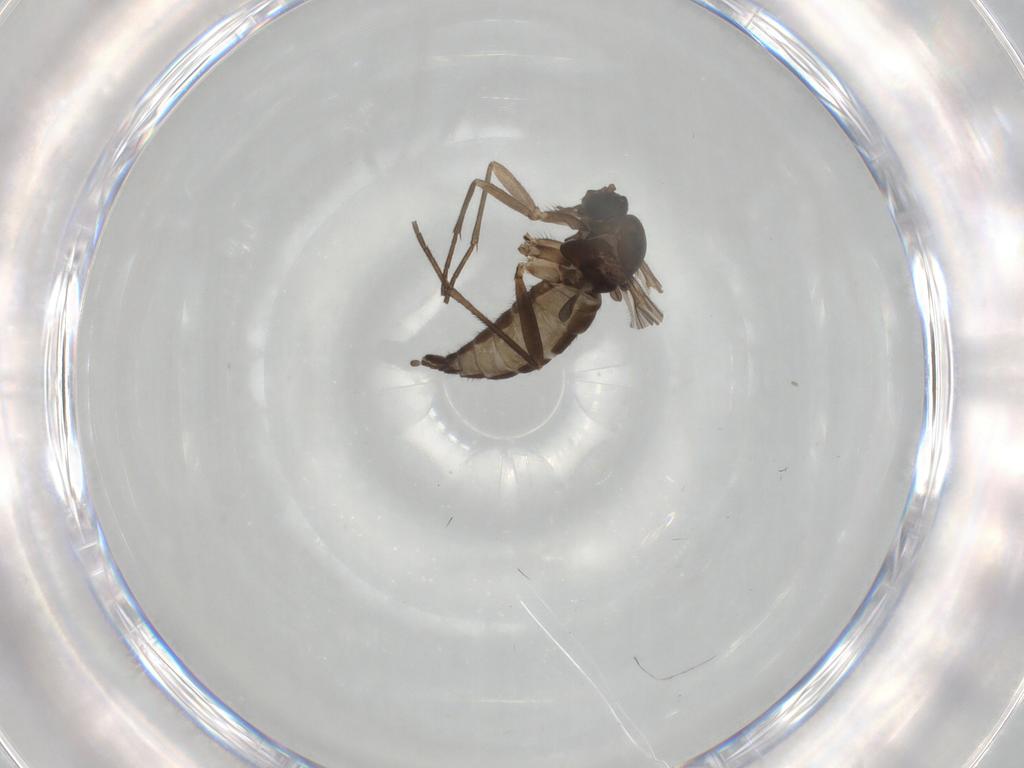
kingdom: Animalia
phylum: Arthropoda
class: Insecta
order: Diptera
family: Sciaridae
